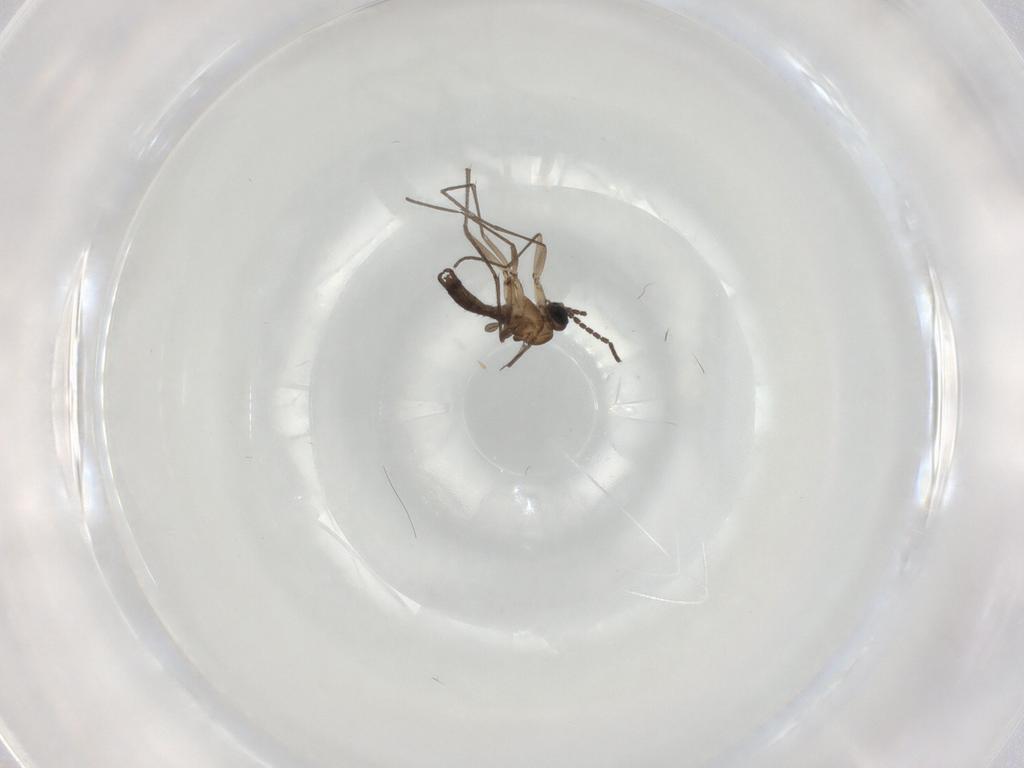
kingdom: Animalia
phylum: Arthropoda
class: Insecta
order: Diptera
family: Sciaridae
